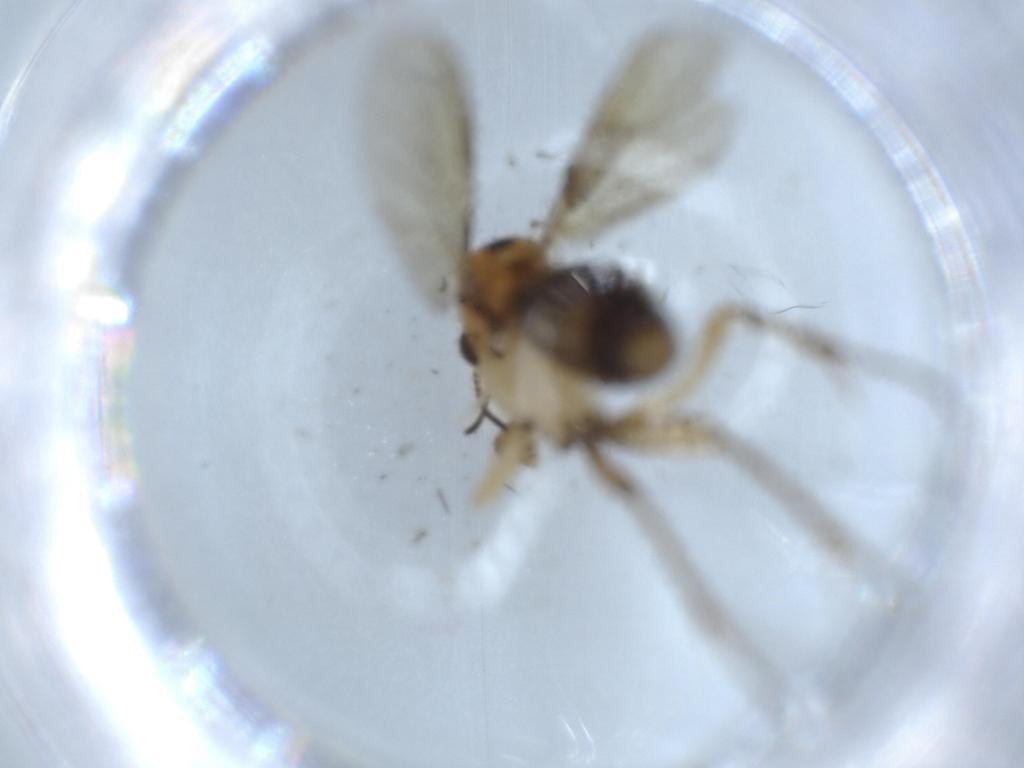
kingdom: Animalia
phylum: Arthropoda
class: Insecta
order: Diptera
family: Mycetophilidae
